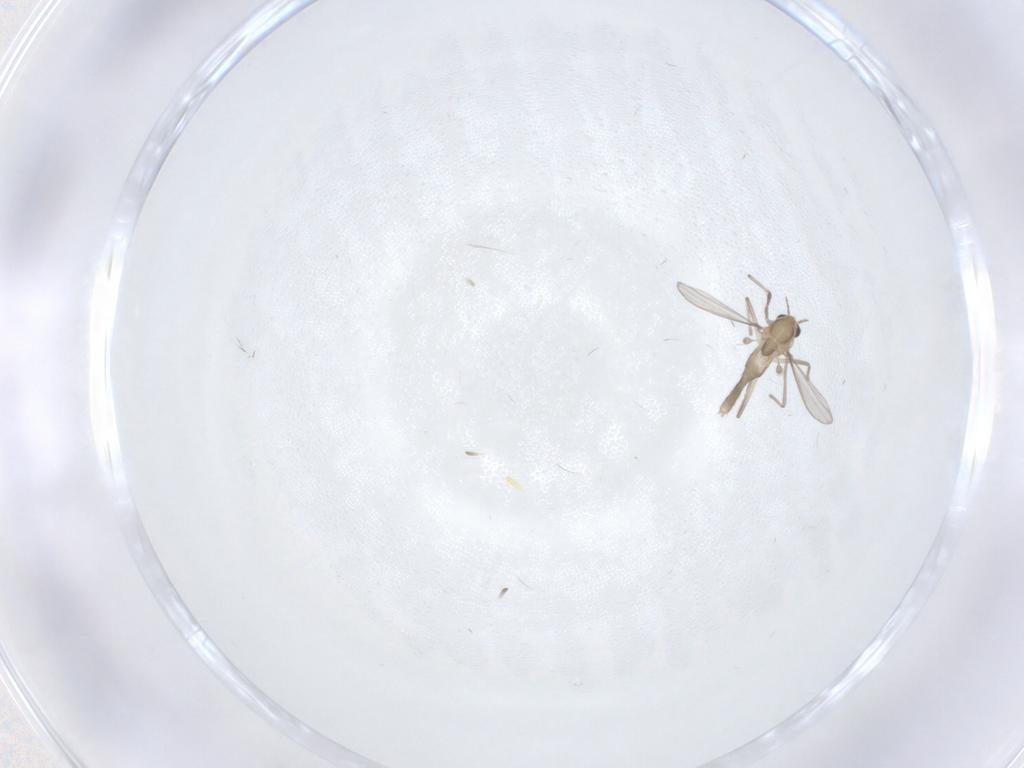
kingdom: Animalia
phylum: Arthropoda
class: Insecta
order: Diptera
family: Chironomidae
